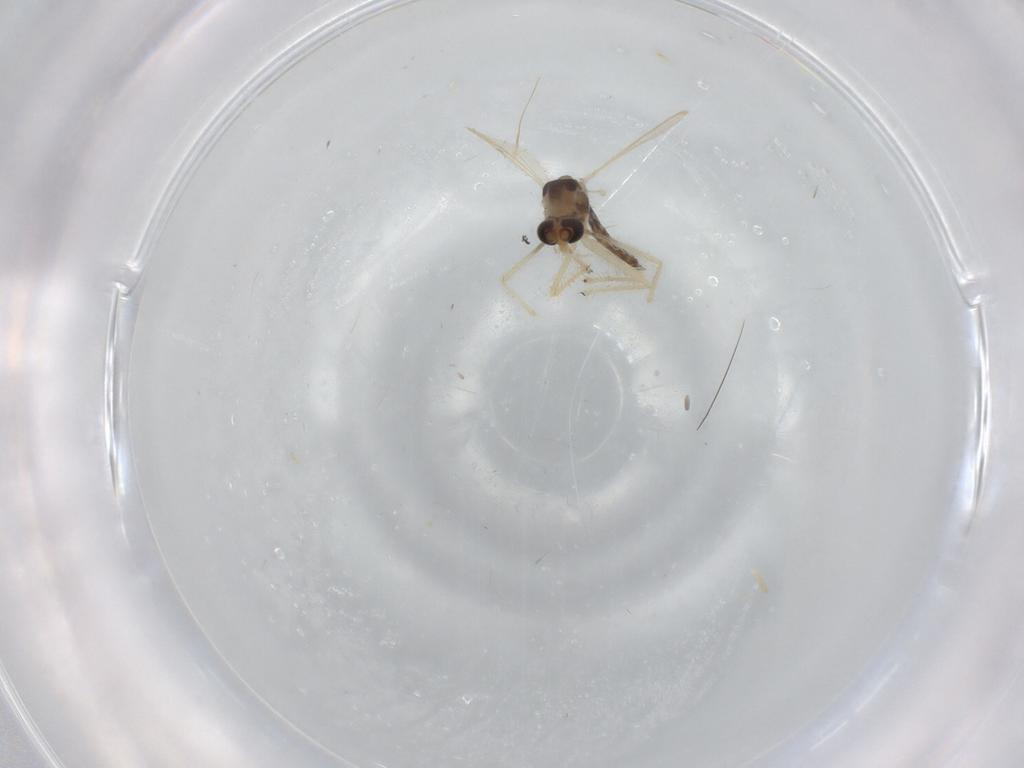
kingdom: Animalia
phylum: Arthropoda
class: Insecta
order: Diptera
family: Chironomidae
